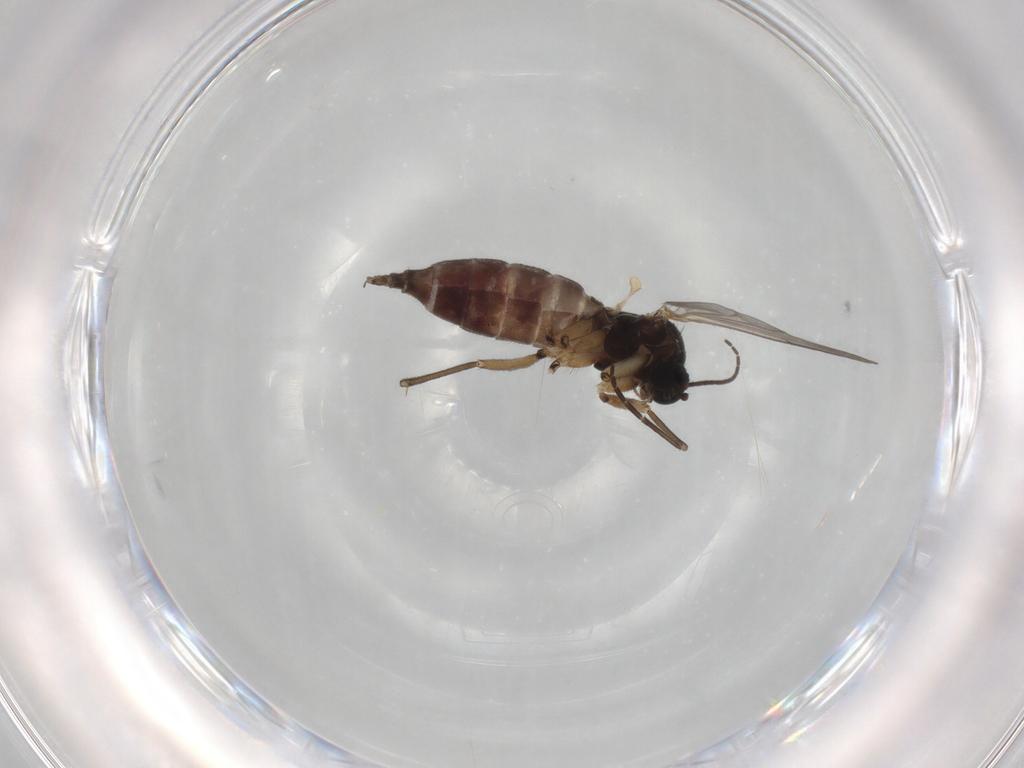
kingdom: Animalia
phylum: Arthropoda
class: Insecta
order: Diptera
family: Sciaridae
